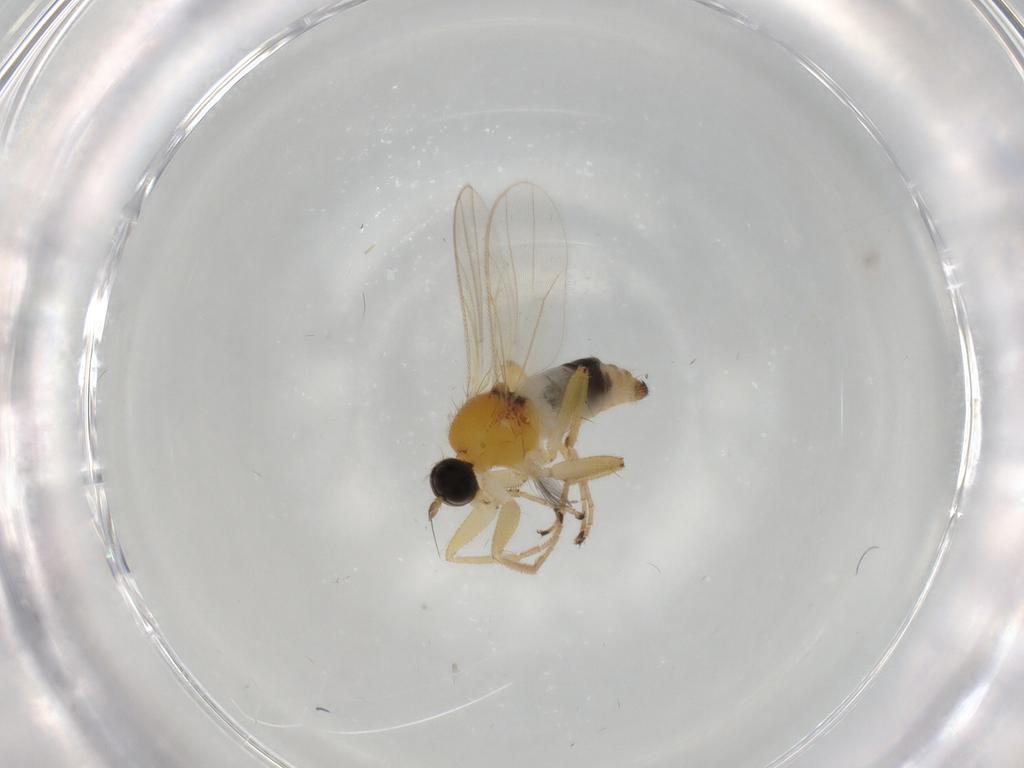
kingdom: Animalia
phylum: Arthropoda
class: Insecta
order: Diptera
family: Hybotidae
